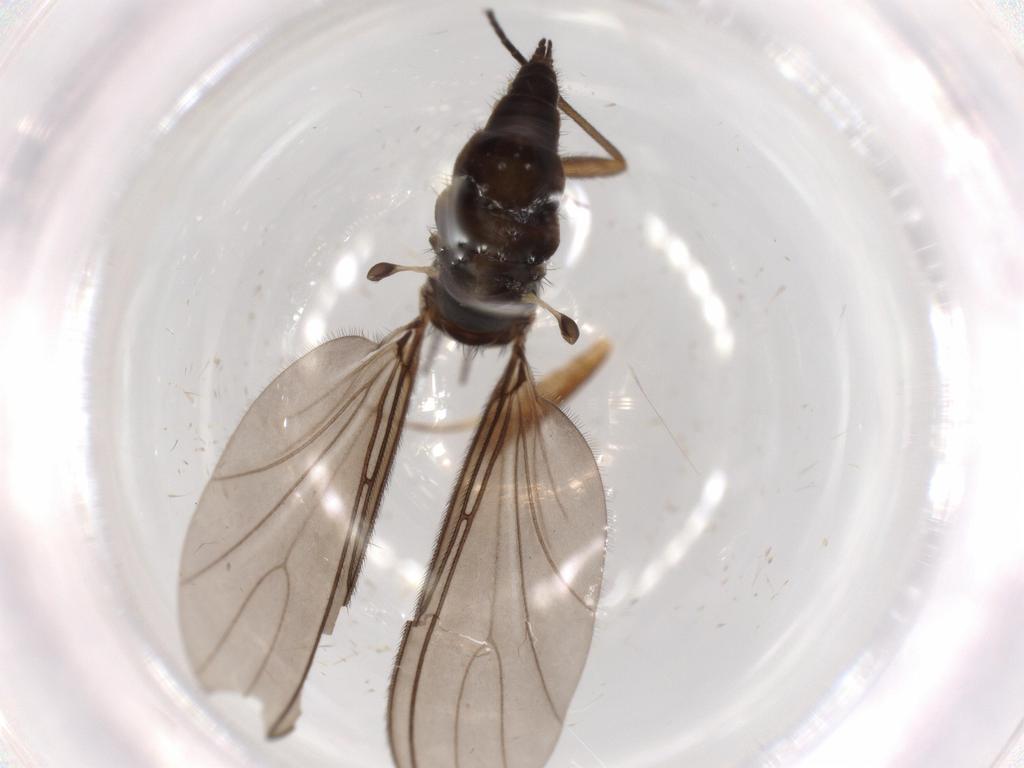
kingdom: Animalia
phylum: Arthropoda
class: Insecta
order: Diptera
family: Sciaridae
